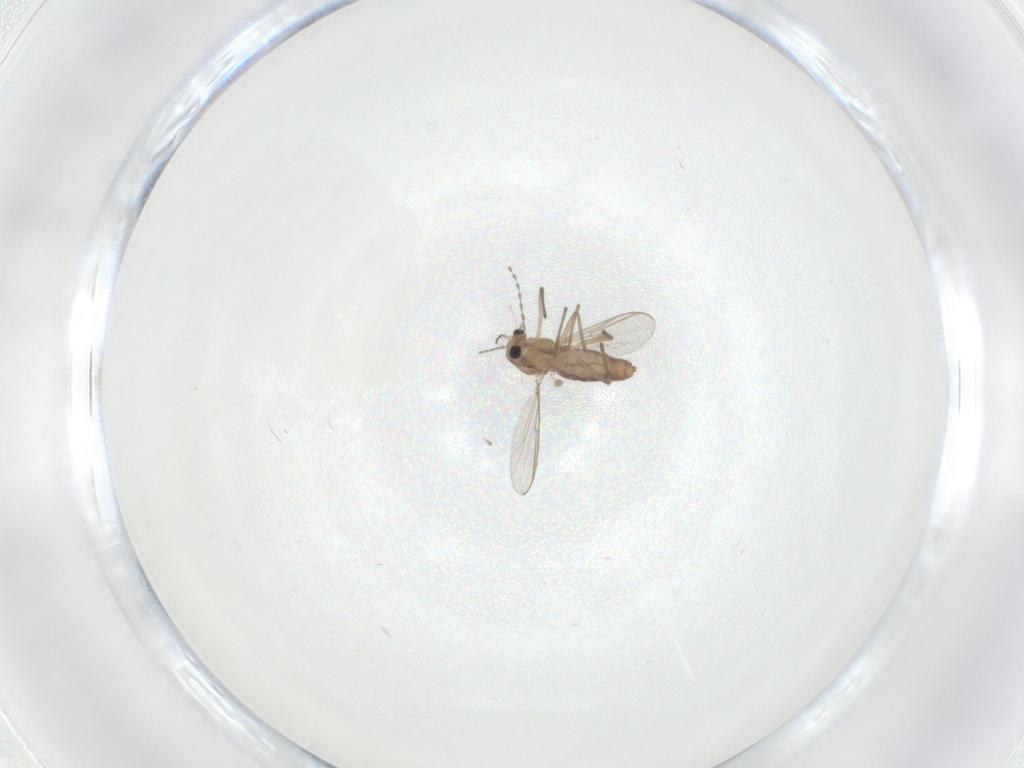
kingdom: Animalia
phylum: Arthropoda
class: Insecta
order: Diptera
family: Chironomidae
